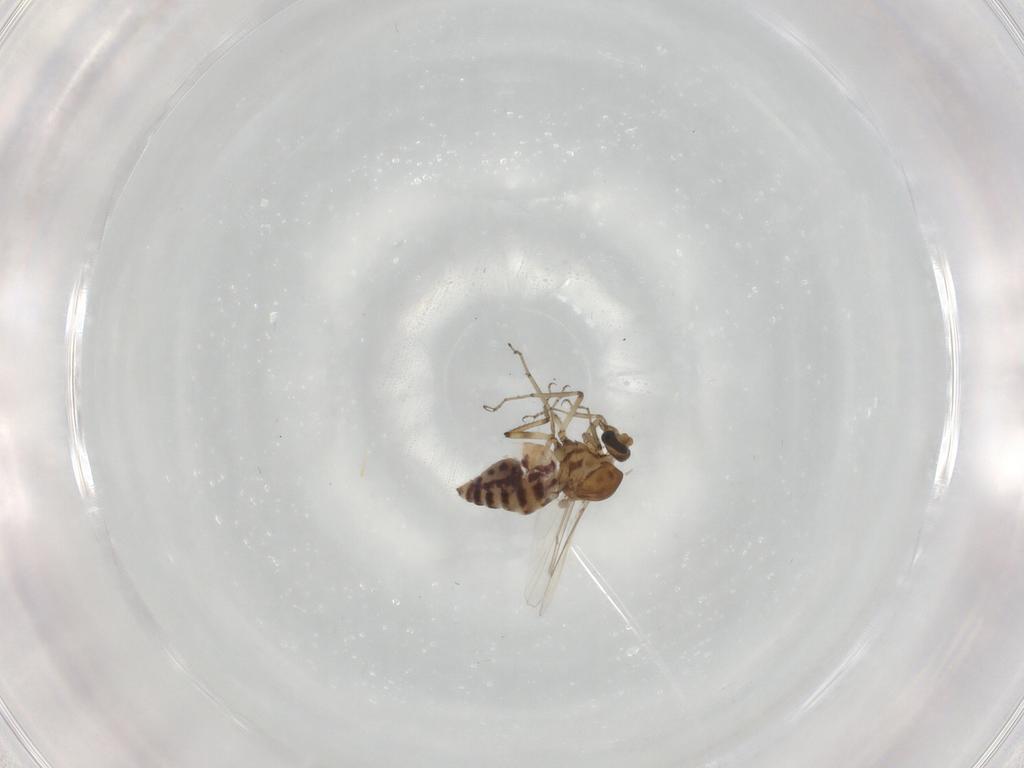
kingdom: Animalia
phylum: Arthropoda
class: Insecta
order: Diptera
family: Ceratopogonidae
